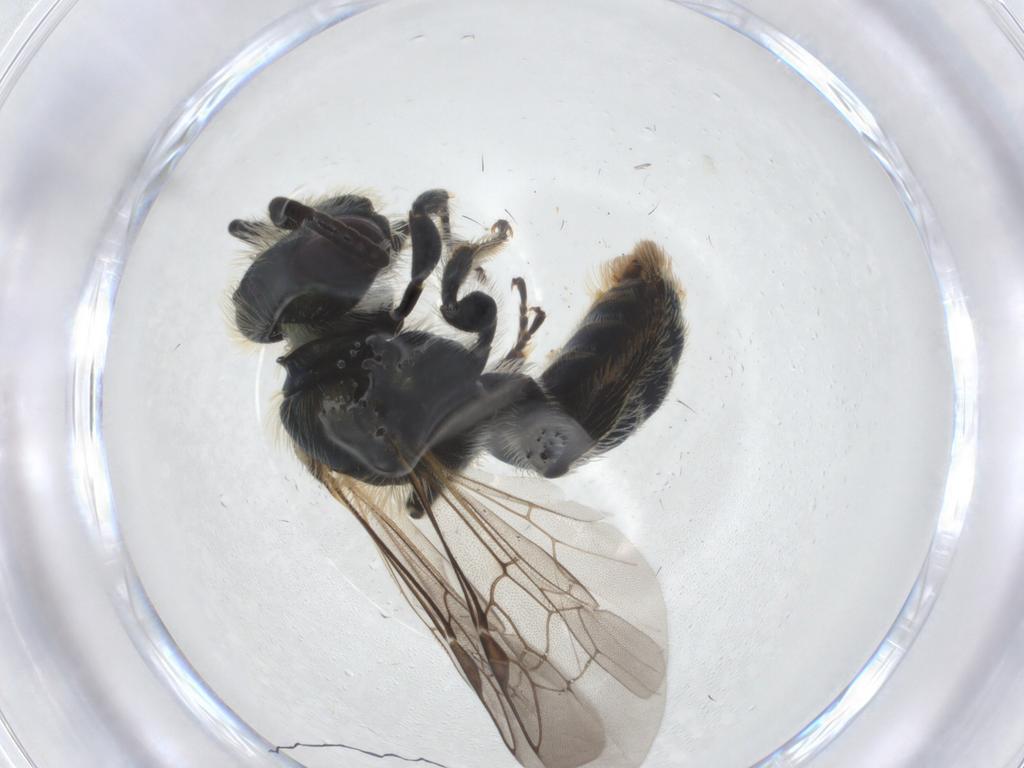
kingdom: Animalia
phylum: Arthropoda
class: Insecta
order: Hymenoptera
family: Halictidae
